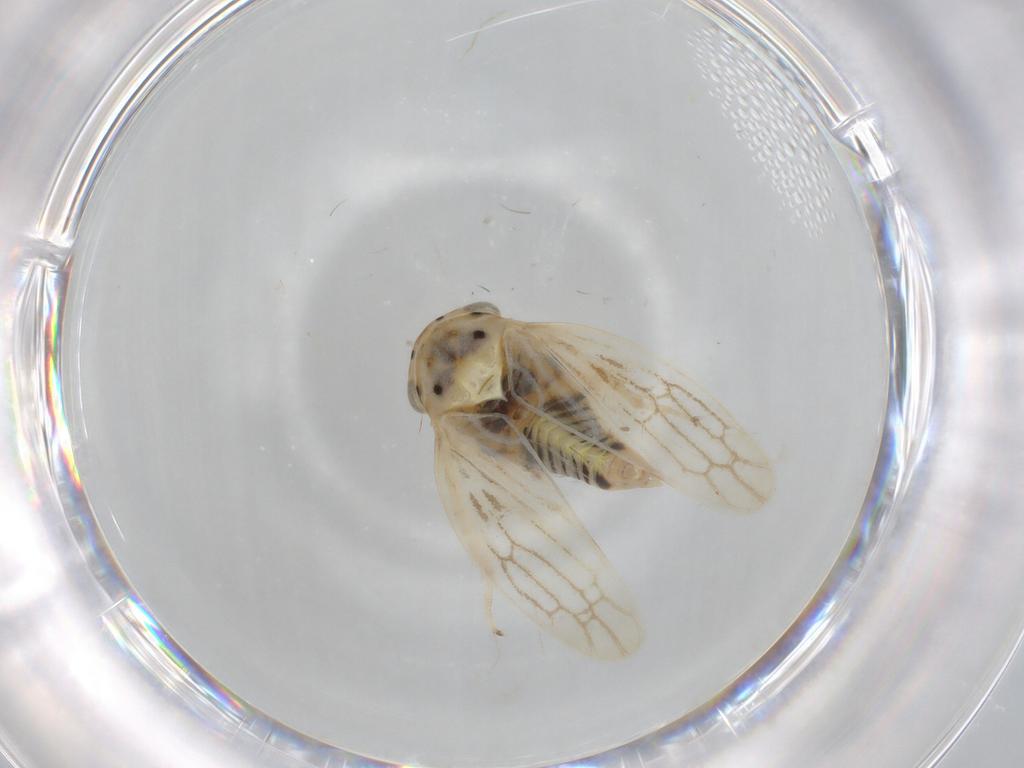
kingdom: Animalia
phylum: Arthropoda
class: Insecta
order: Hemiptera
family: Cicadellidae
